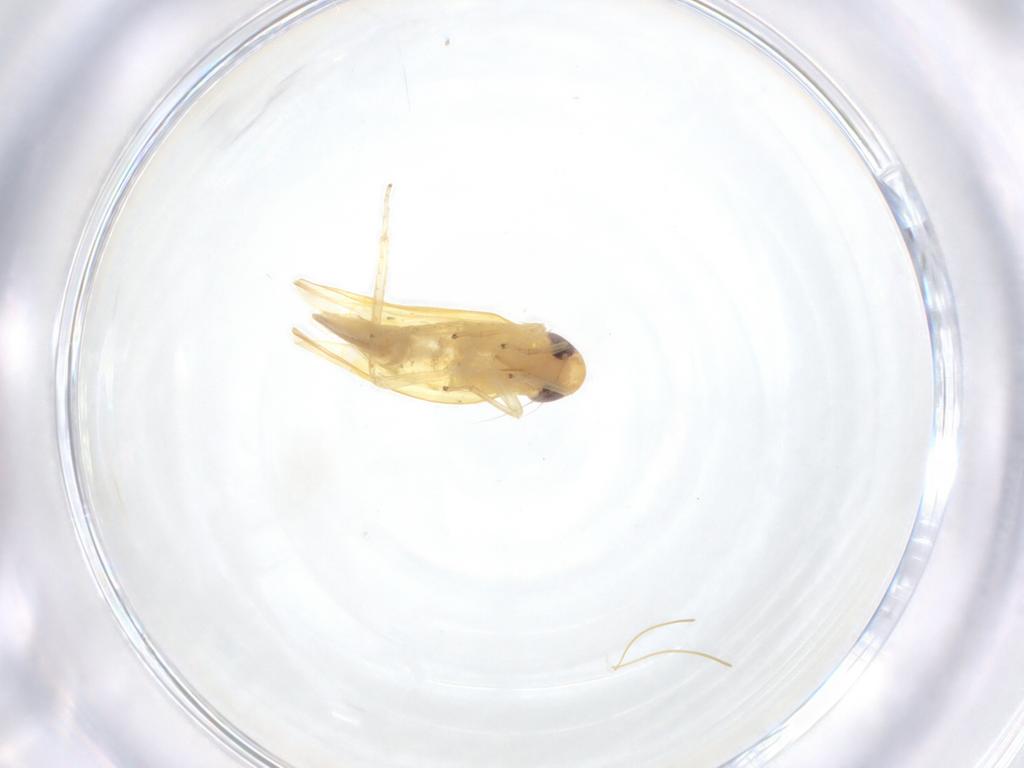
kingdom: Animalia
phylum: Arthropoda
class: Insecta
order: Hemiptera
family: Cicadellidae
